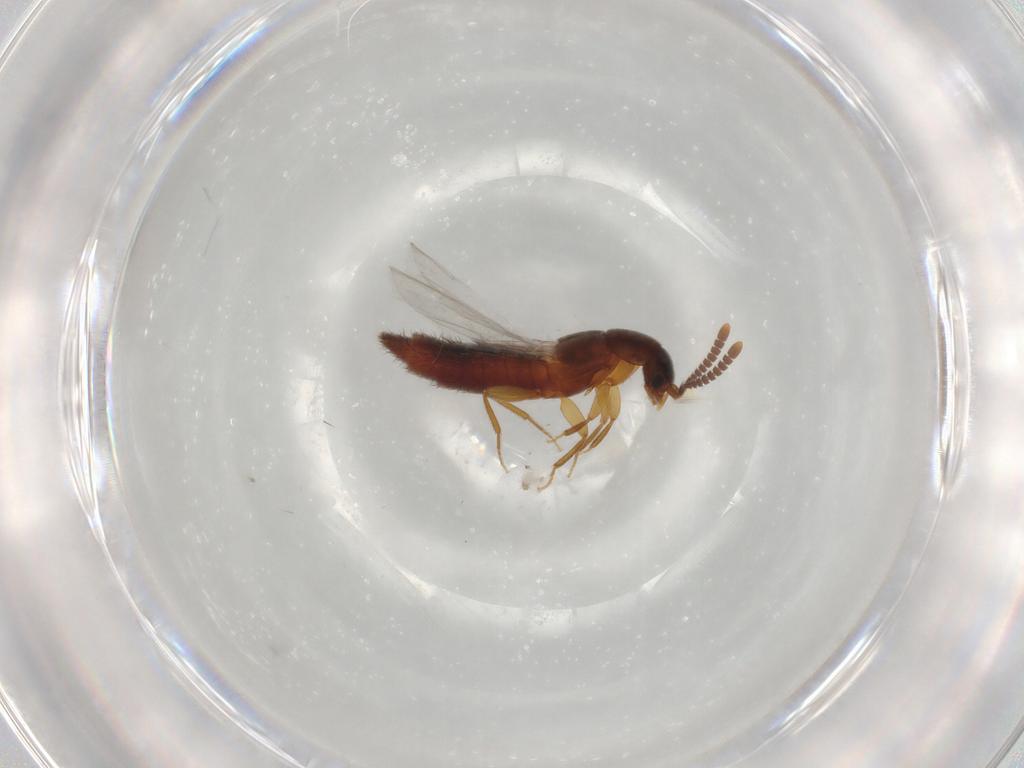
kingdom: Animalia
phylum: Arthropoda
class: Insecta
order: Coleoptera
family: Staphylinidae
